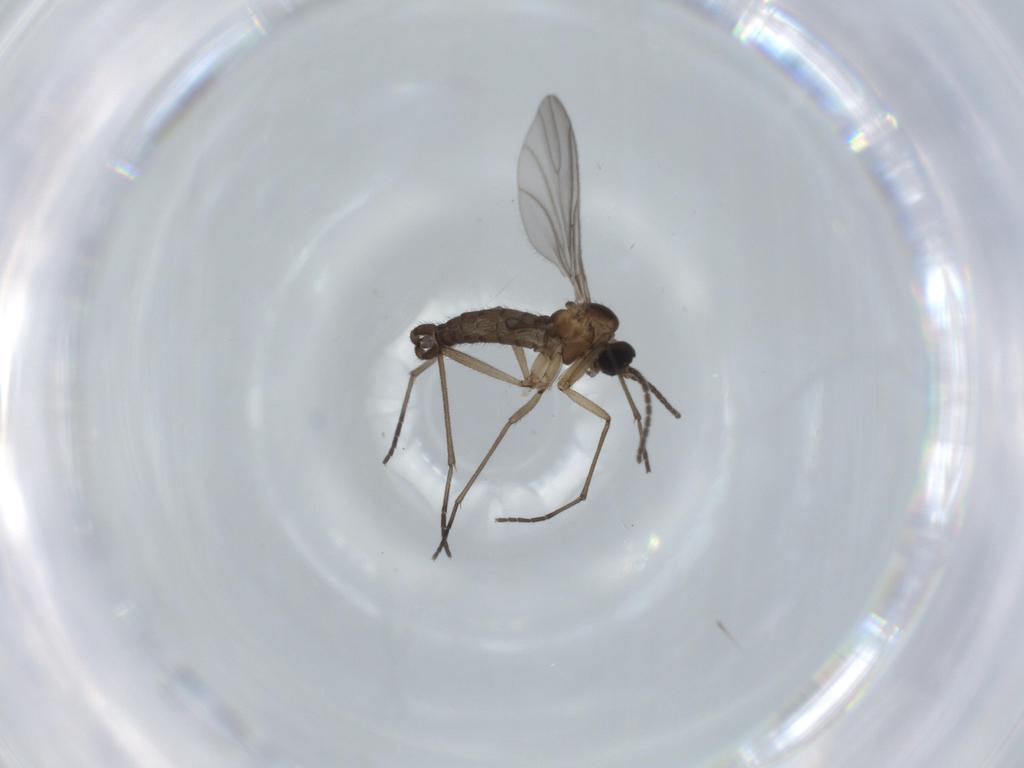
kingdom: Animalia
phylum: Arthropoda
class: Insecta
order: Diptera
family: Sciaridae
